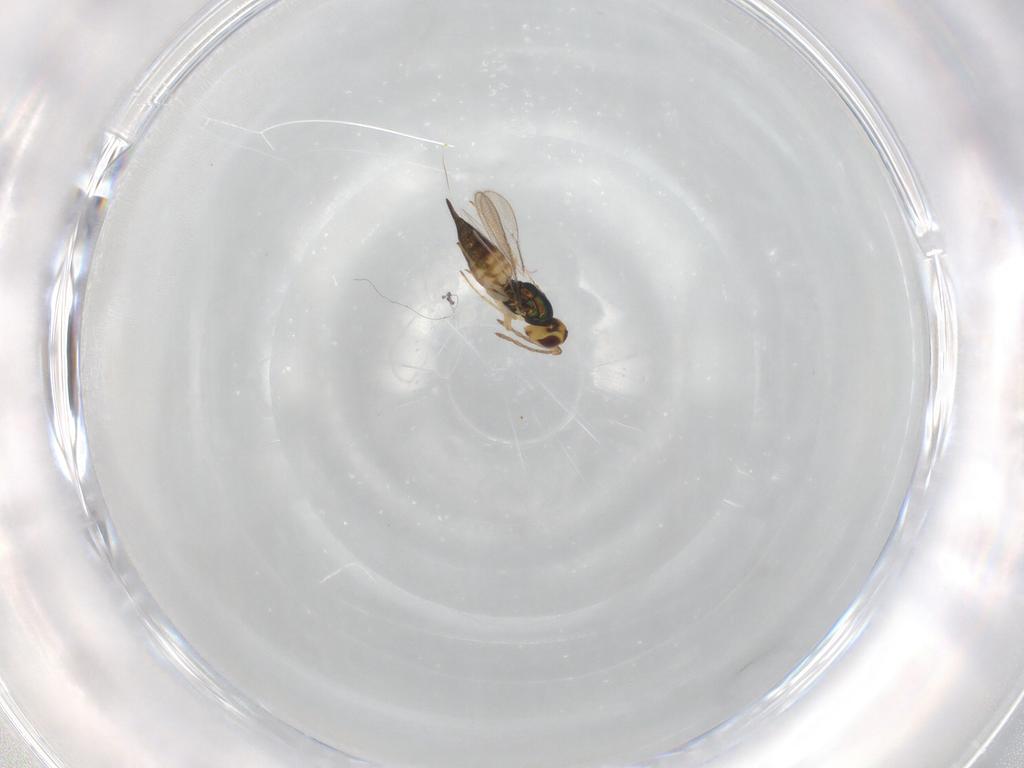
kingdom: Animalia
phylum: Arthropoda
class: Insecta
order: Hymenoptera
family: Eulophidae
